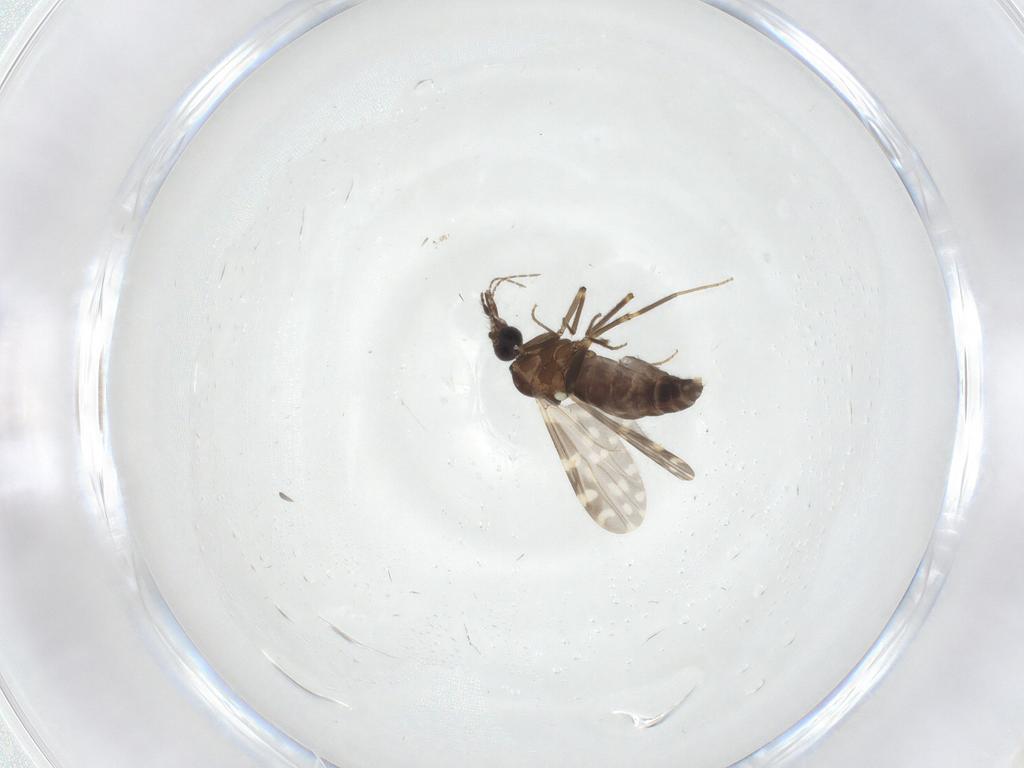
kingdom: Animalia
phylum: Arthropoda
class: Insecta
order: Diptera
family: Ceratopogonidae
